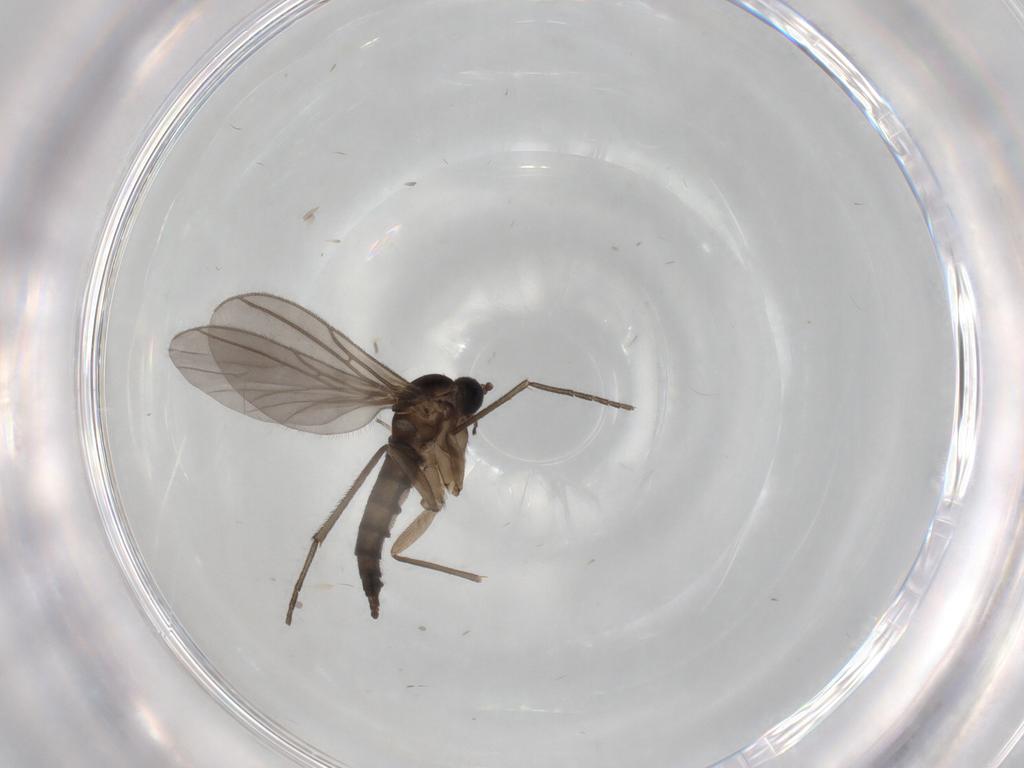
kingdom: Animalia
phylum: Arthropoda
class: Insecta
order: Diptera
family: Sciaridae
